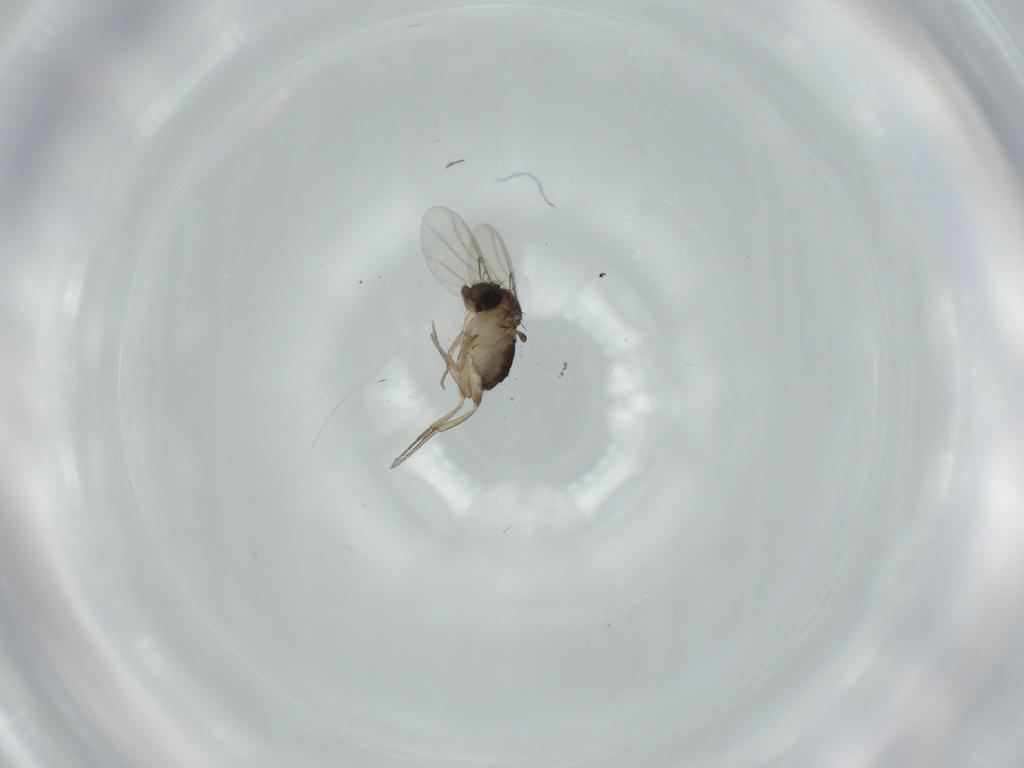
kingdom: Animalia
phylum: Arthropoda
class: Insecta
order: Diptera
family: Phoridae
